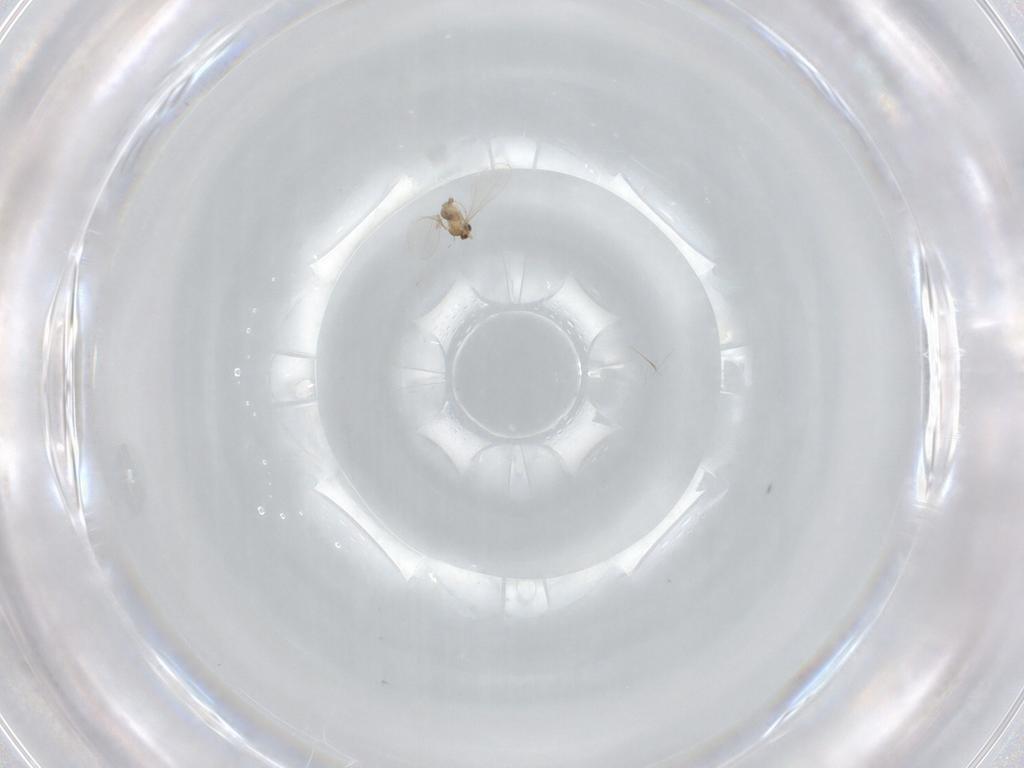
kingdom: Animalia
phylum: Arthropoda
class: Insecta
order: Diptera
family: Cecidomyiidae
